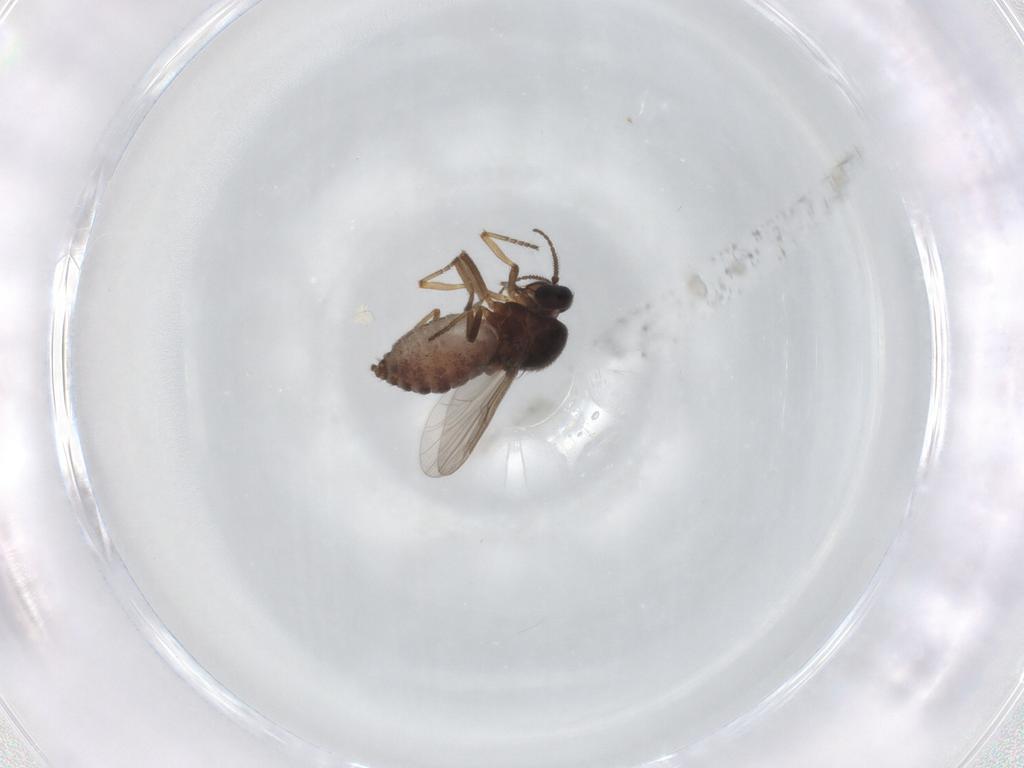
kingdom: Animalia
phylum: Arthropoda
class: Insecta
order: Diptera
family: Ceratopogonidae
